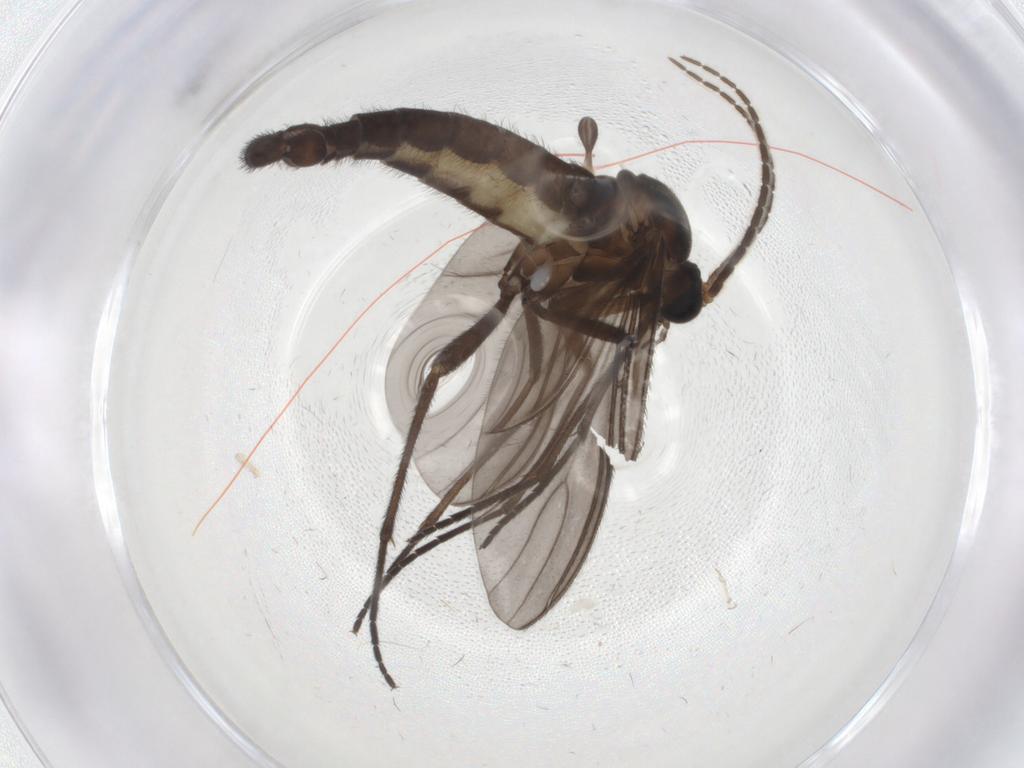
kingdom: Animalia
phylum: Arthropoda
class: Insecta
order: Diptera
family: Sciaridae
